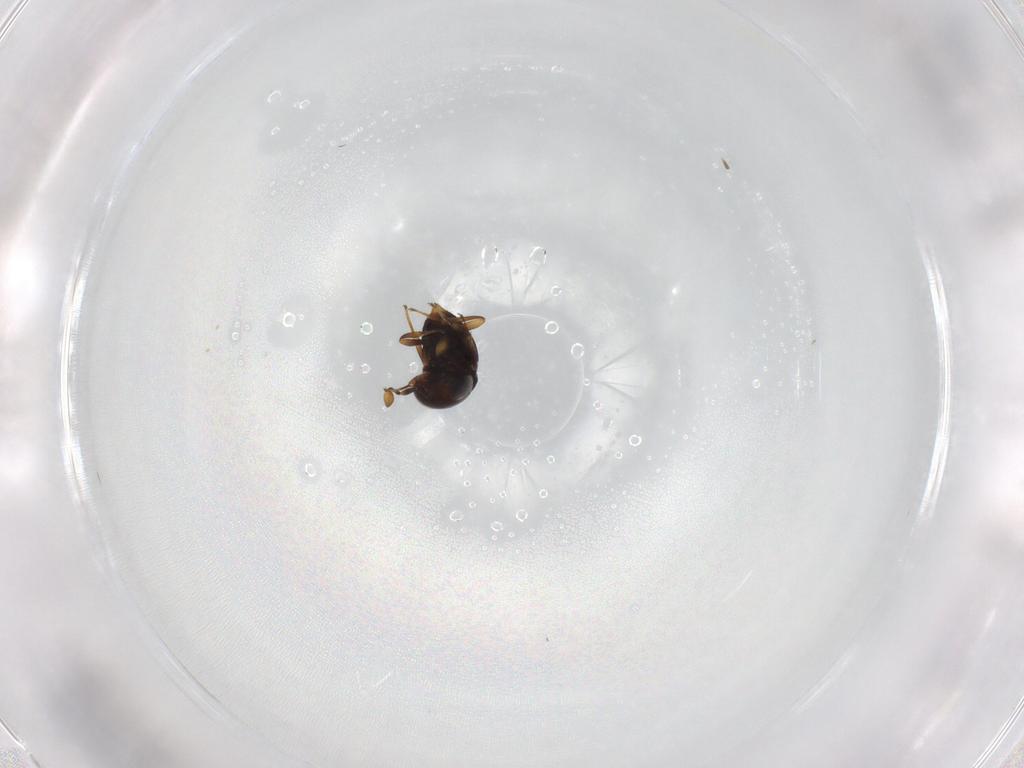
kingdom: Animalia
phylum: Arthropoda
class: Insecta
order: Hymenoptera
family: Scelionidae
